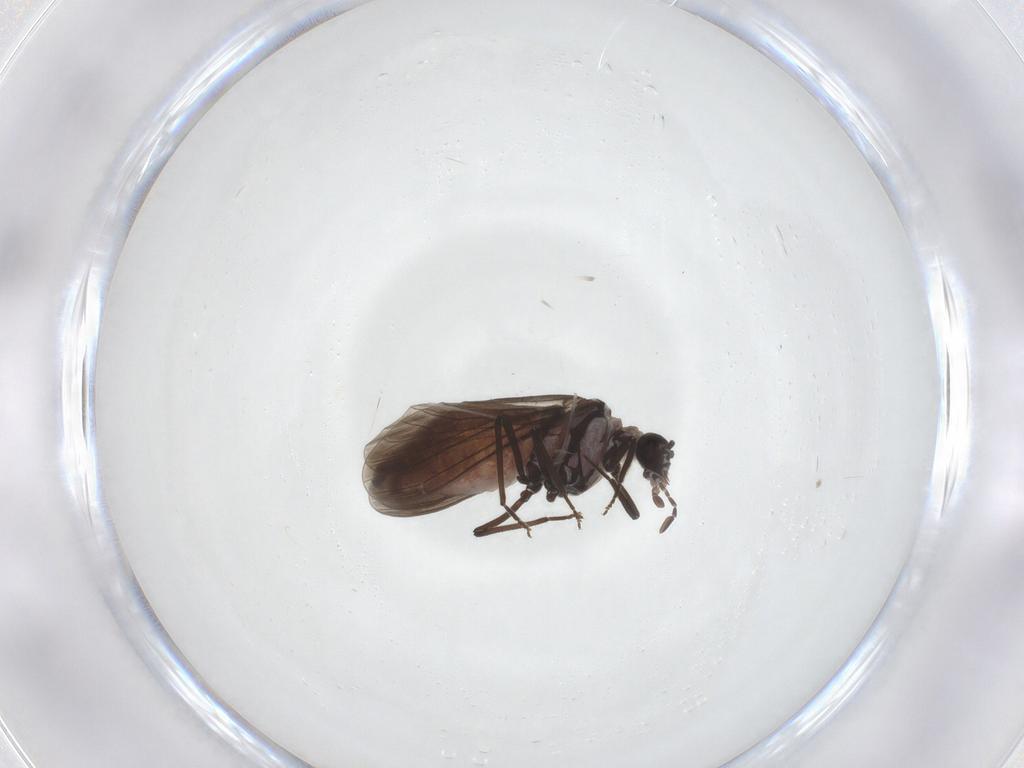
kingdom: Animalia
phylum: Arthropoda
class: Insecta
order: Neuroptera
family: Coniopterygidae
